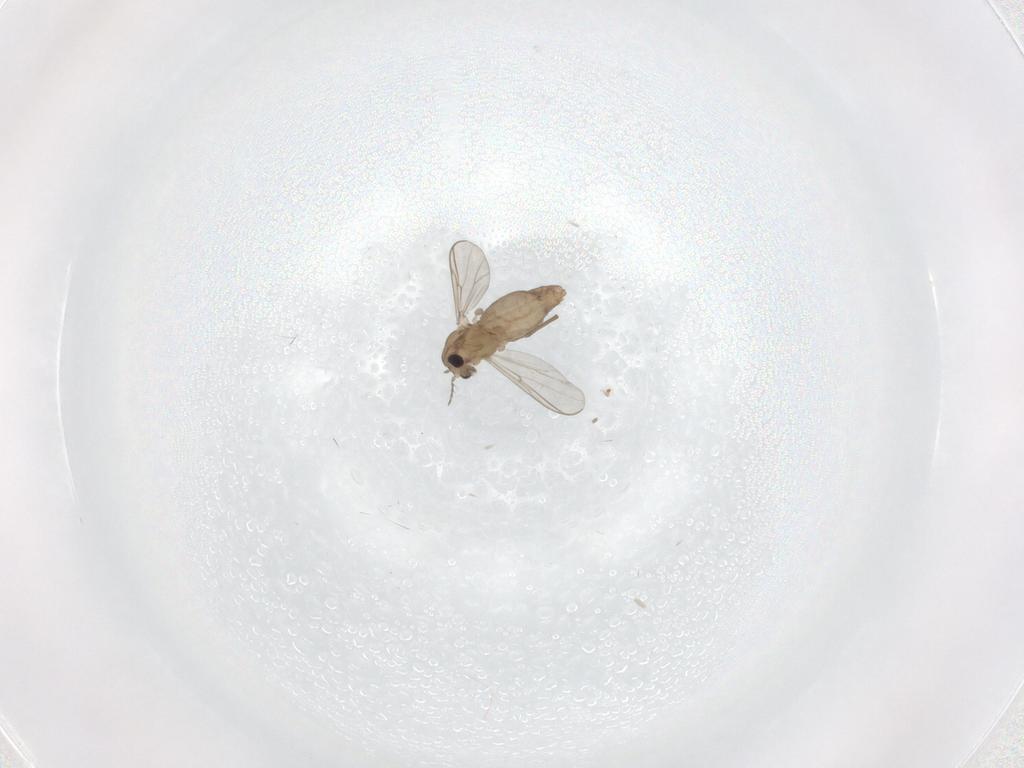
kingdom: Animalia
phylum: Arthropoda
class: Insecta
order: Diptera
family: Chironomidae
